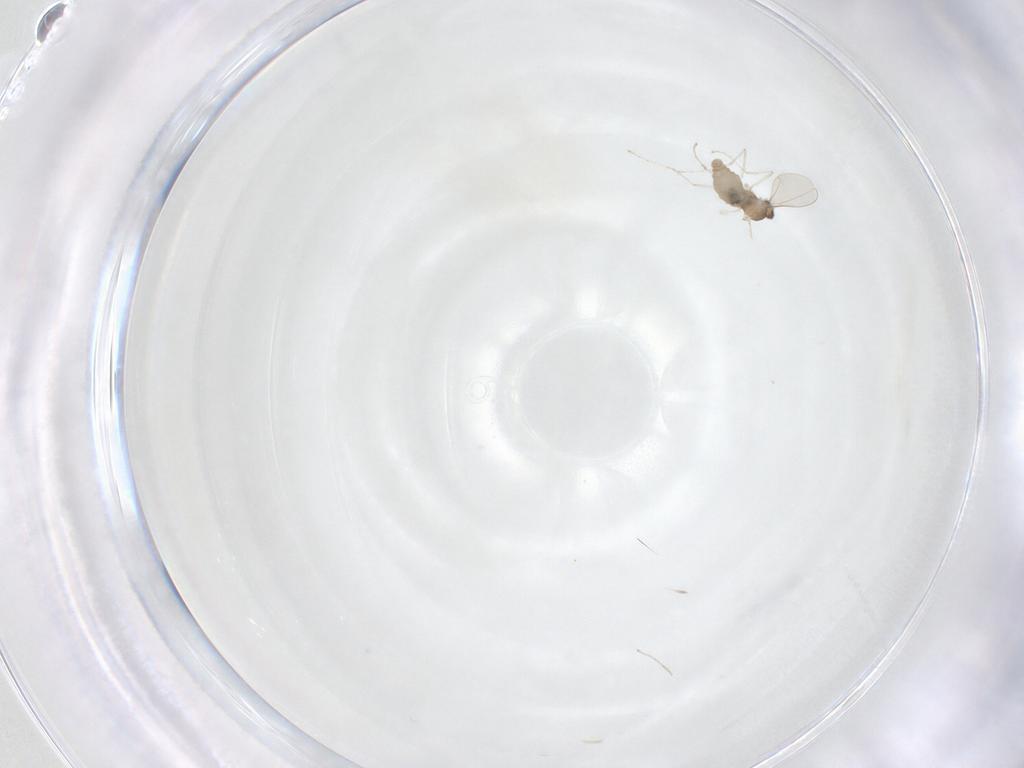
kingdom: Animalia
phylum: Arthropoda
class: Insecta
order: Diptera
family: Cecidomyiidae
